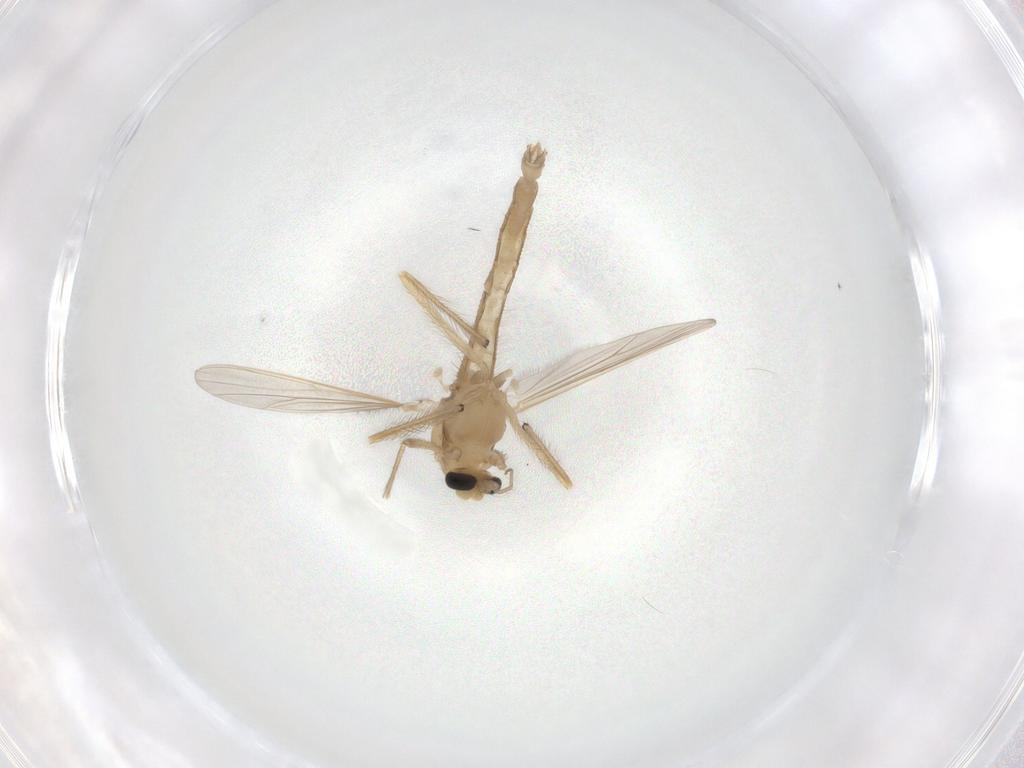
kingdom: Animalia
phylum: Arthropoda
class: Insecta
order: Diptera
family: Chironomidae
